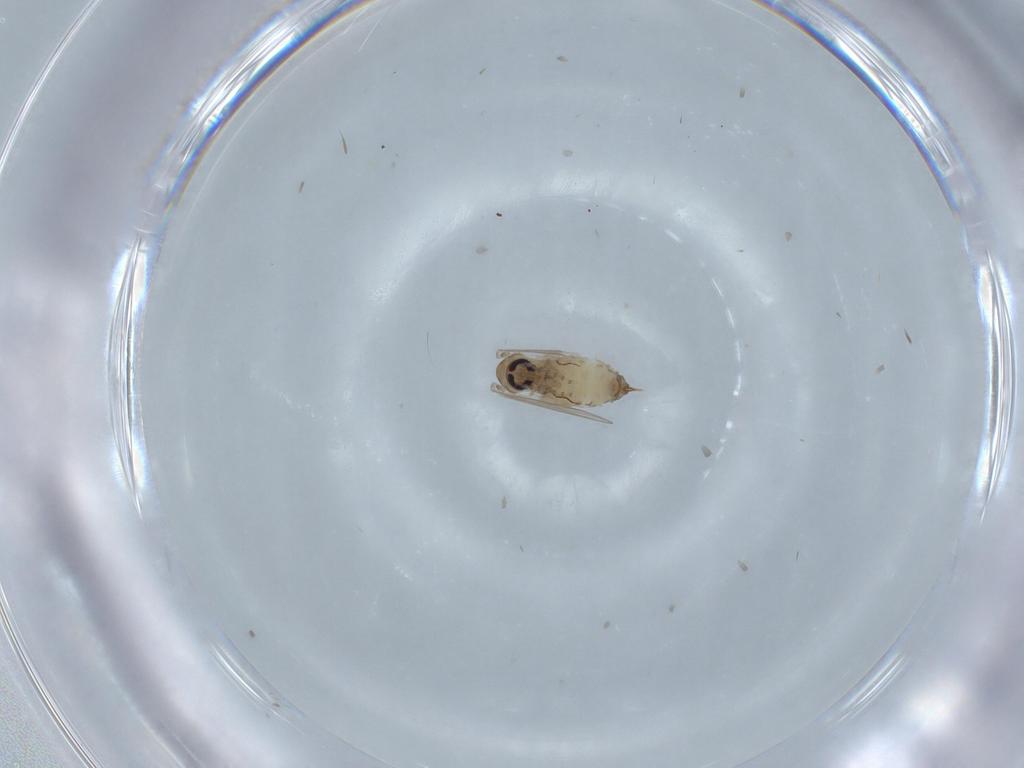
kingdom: Animalia
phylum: Arthropoda
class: Insecta
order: Diptera
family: Psychodidae
